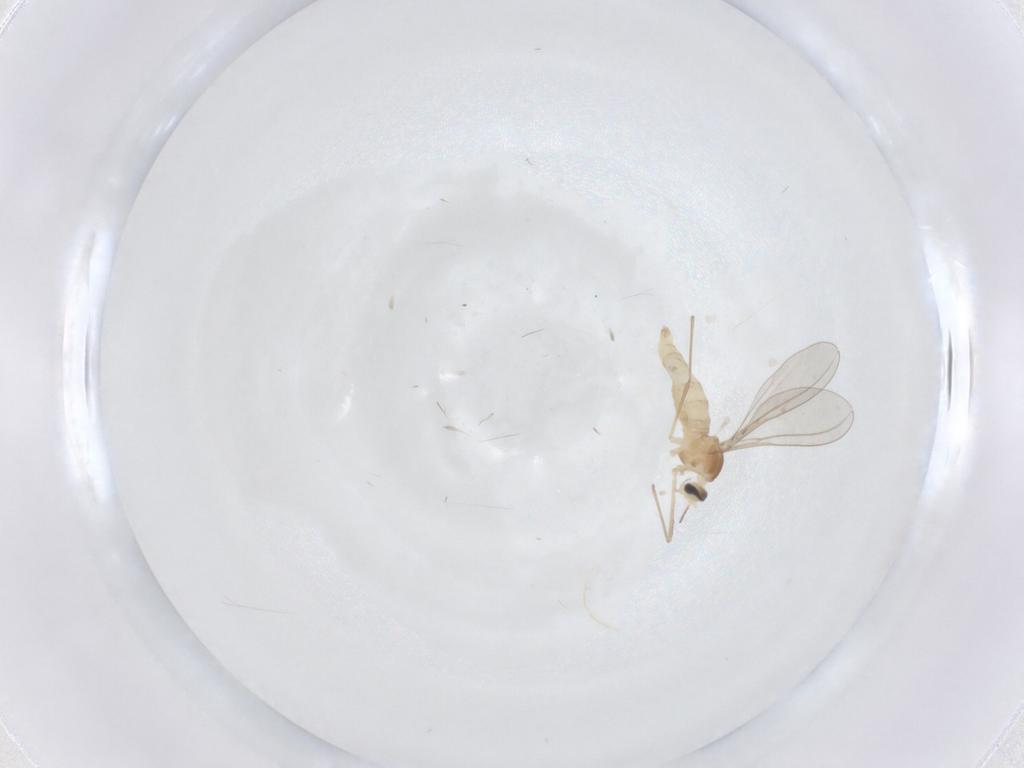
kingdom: Animalia
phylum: Arthropoda
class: Insecta
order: Diptera
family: Cecidomyiidae
